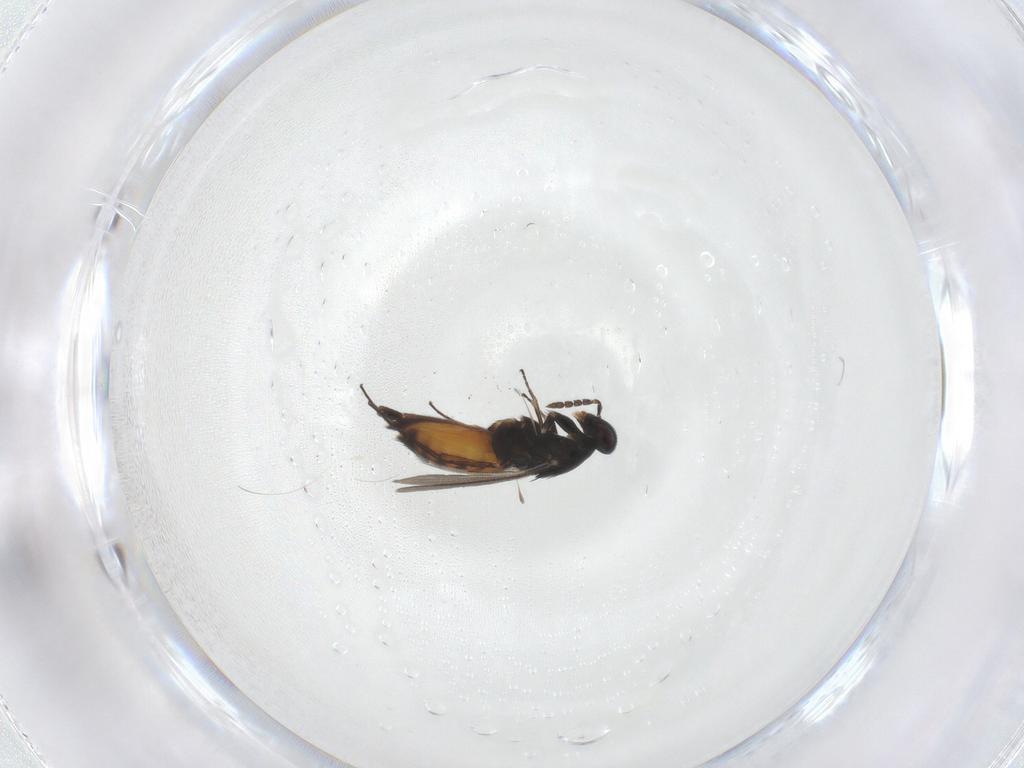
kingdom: Animalia
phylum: Arthropoda
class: Insecta
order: Hymenoptera
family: Eulophidae
